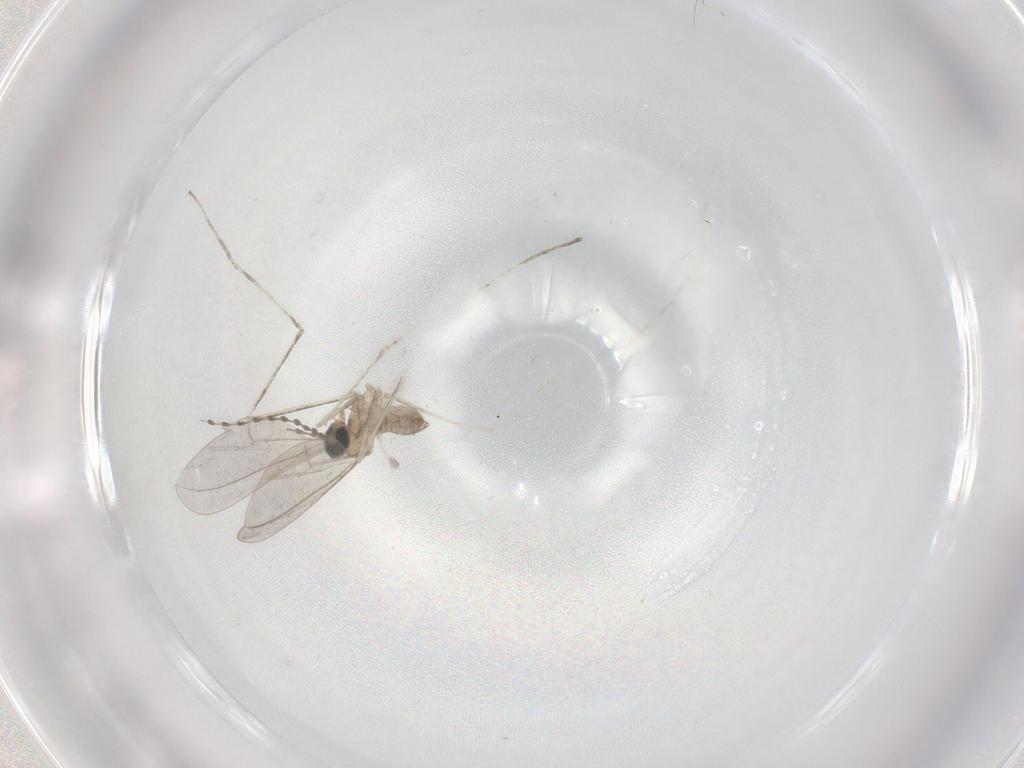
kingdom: Animalia
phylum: Arthropoda
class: Insecta
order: Diptera
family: Cecidomyiidae
